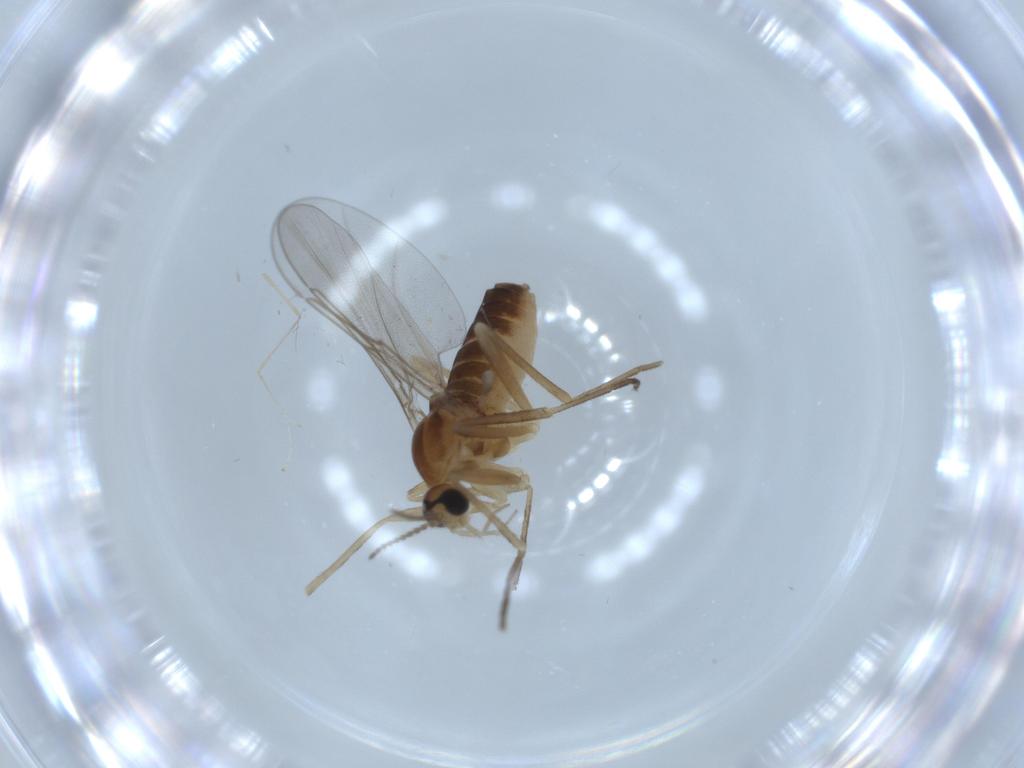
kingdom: Animalia
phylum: Arthropoda
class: Insecta
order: Diptera
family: Cecidomyiidae
